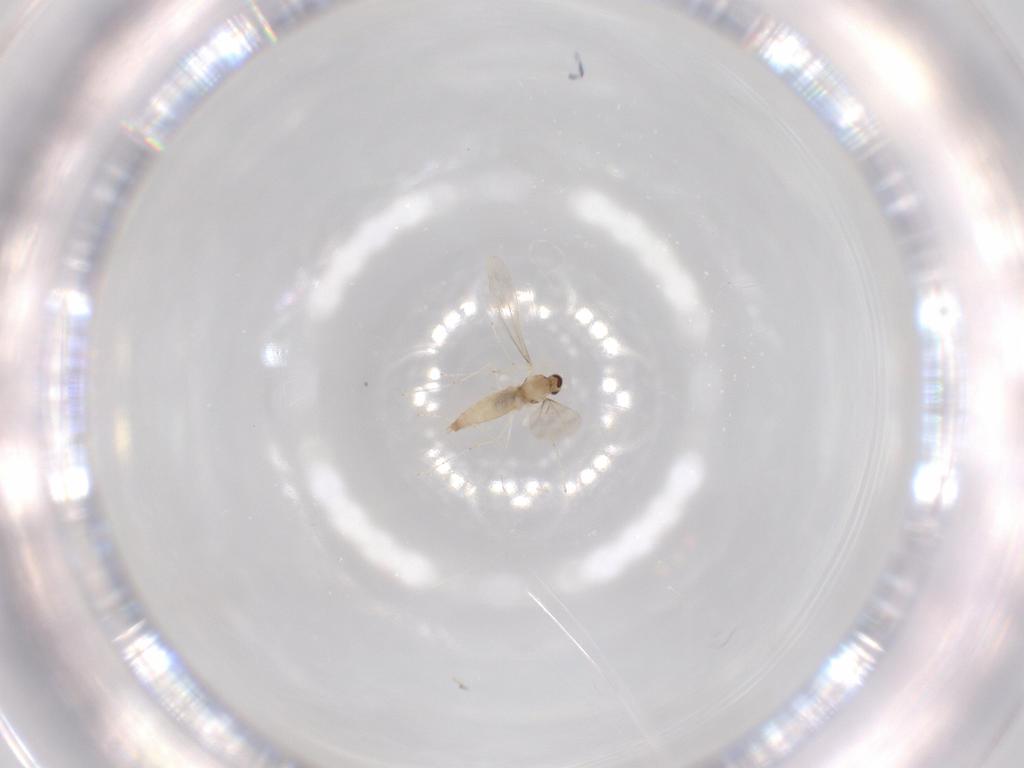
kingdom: Animalia
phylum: Arthropoda
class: Insecta
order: Diptera
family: Cecidomyiidae
